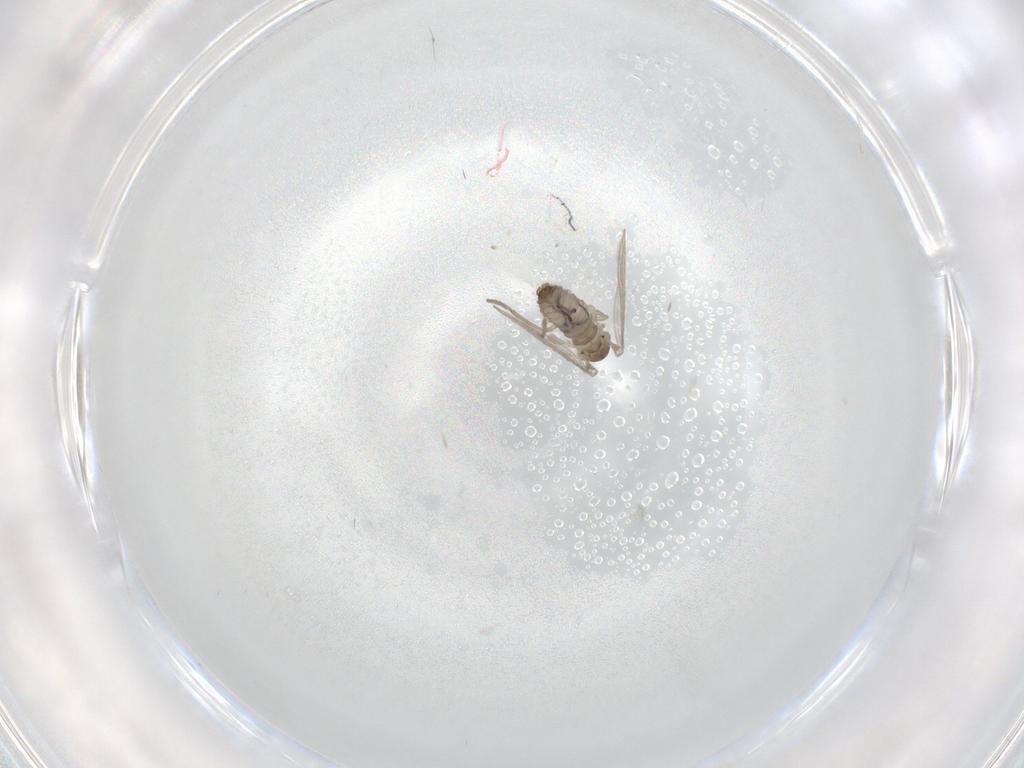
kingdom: Animalia
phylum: Arthropoda
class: Insecta
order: Diptera
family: Psychodidae
